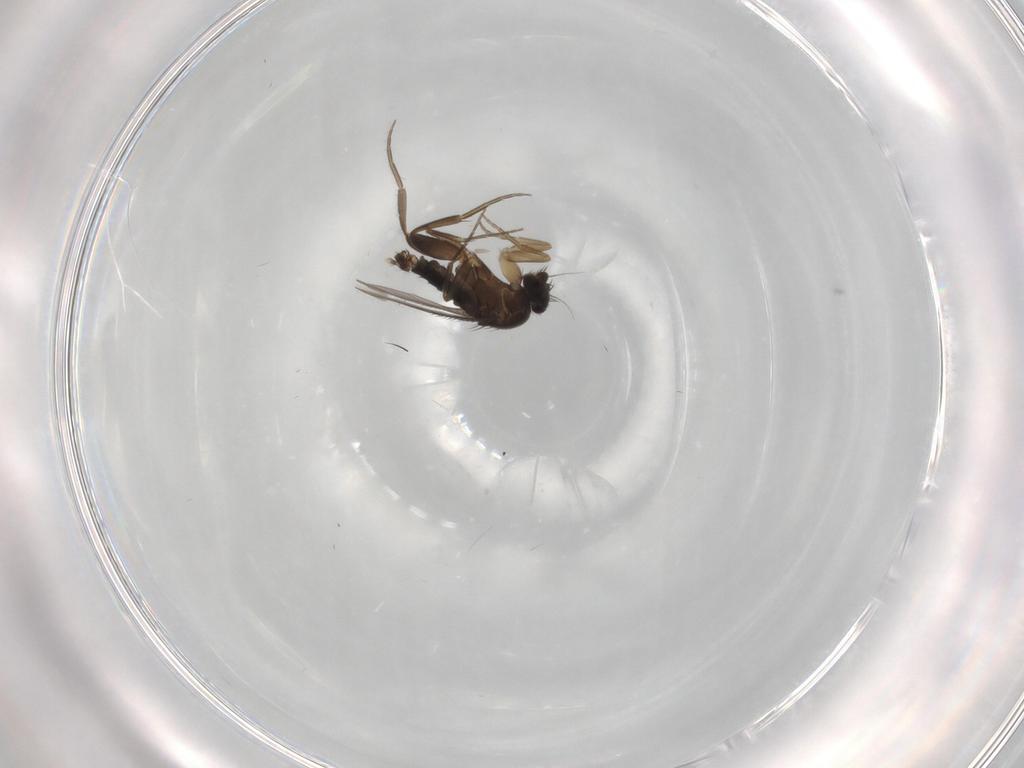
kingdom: Animalia
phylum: Arthropoda
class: Insecta
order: Diptera
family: Phoridae
